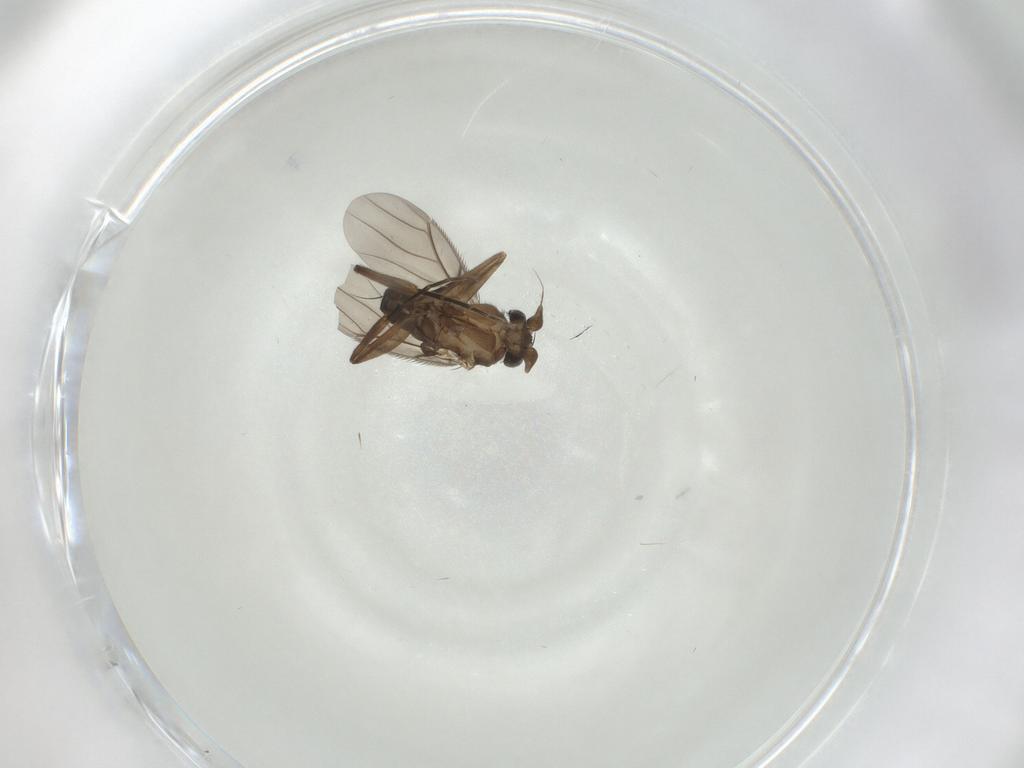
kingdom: Animalia
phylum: Arthropoda
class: Insecta
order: Diptera
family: Phoridae
